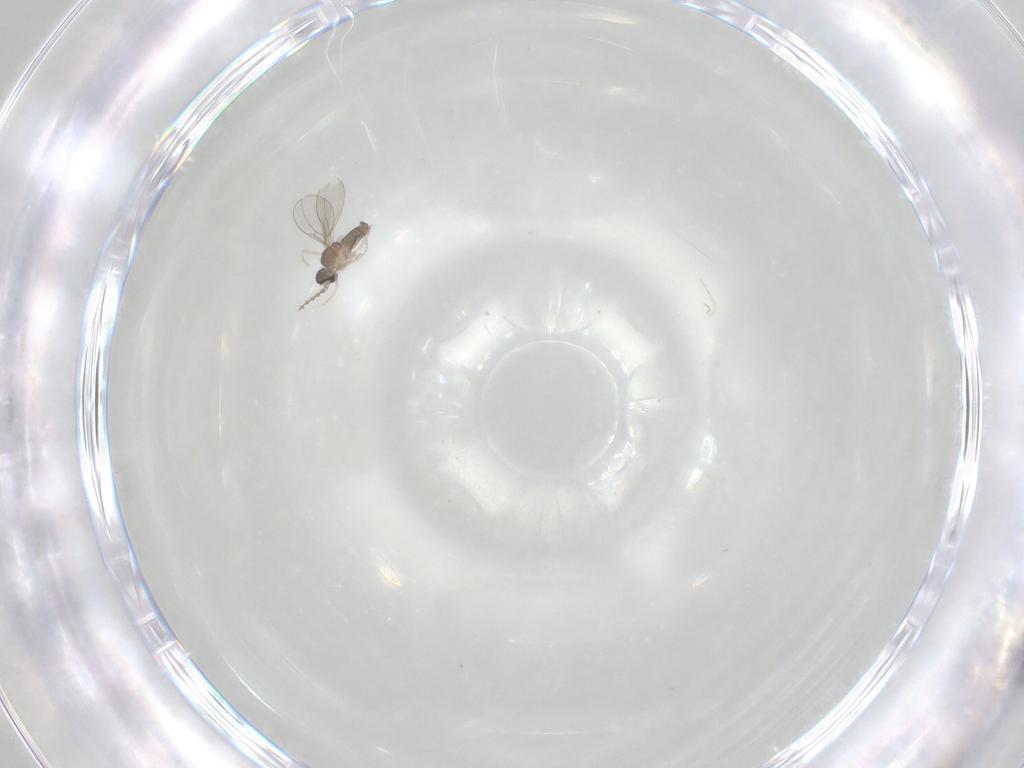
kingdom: Animalia
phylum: Arthropoda
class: Insecta
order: Diptera
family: Cecidomyiidae
